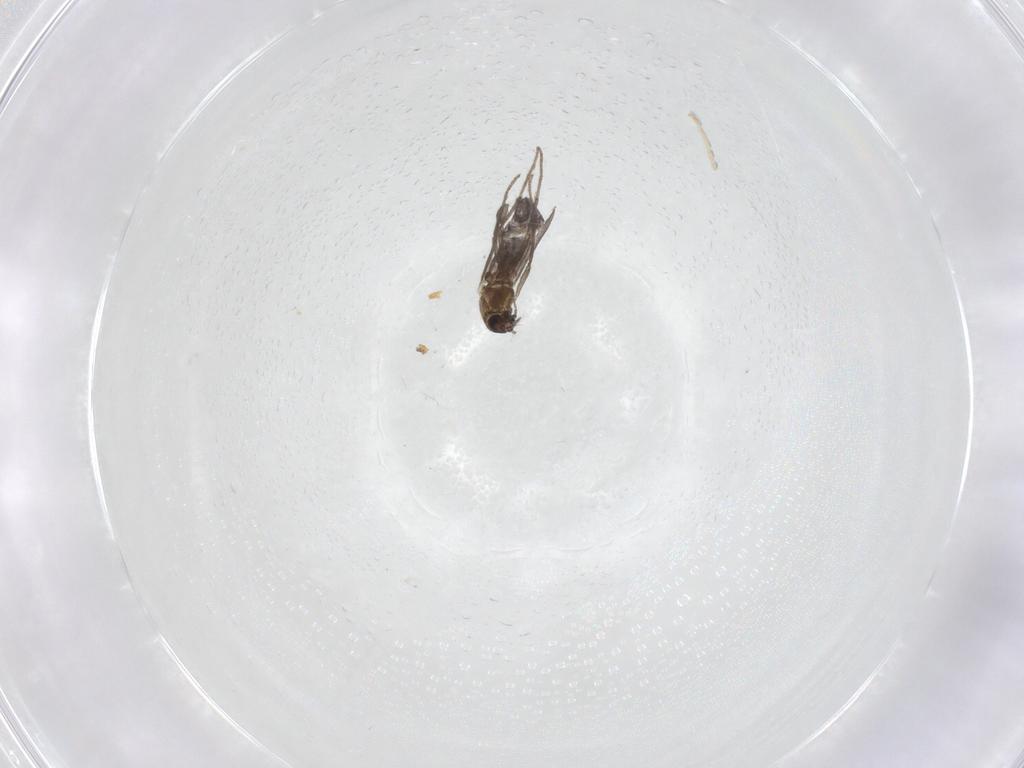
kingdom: Animalia
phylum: Arthropoda
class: Insecta
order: Diptera
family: Chironomidae
